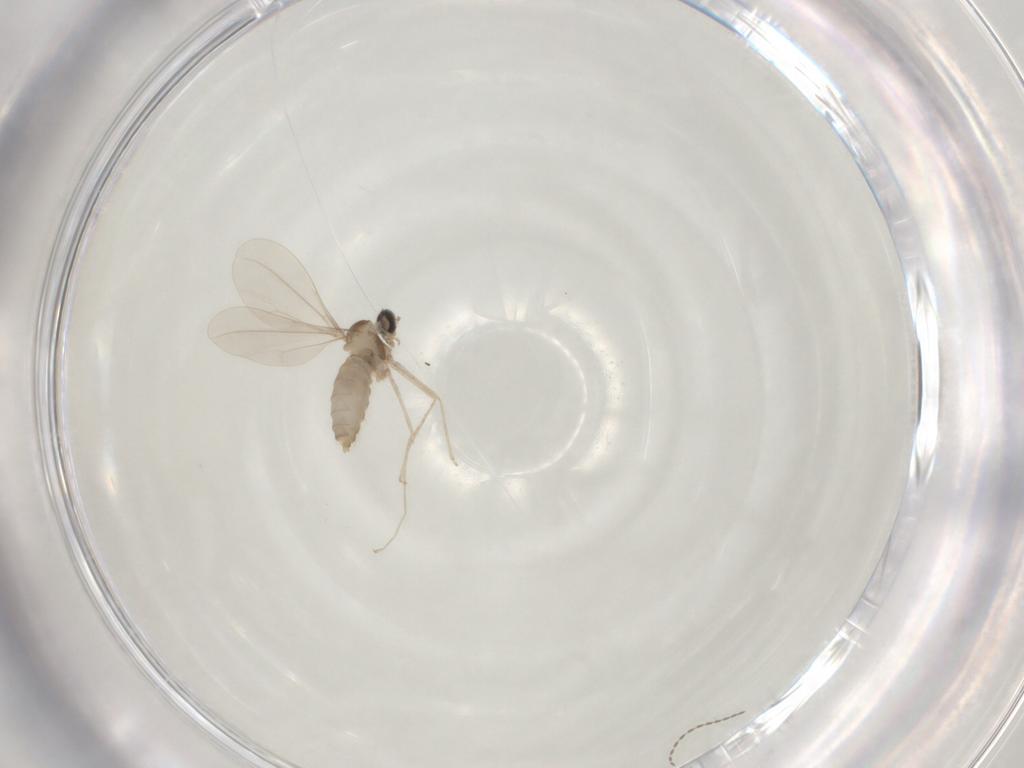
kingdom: Animalia
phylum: Arthropoda
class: Insecta
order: Diptera
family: Cecidomyiidae
